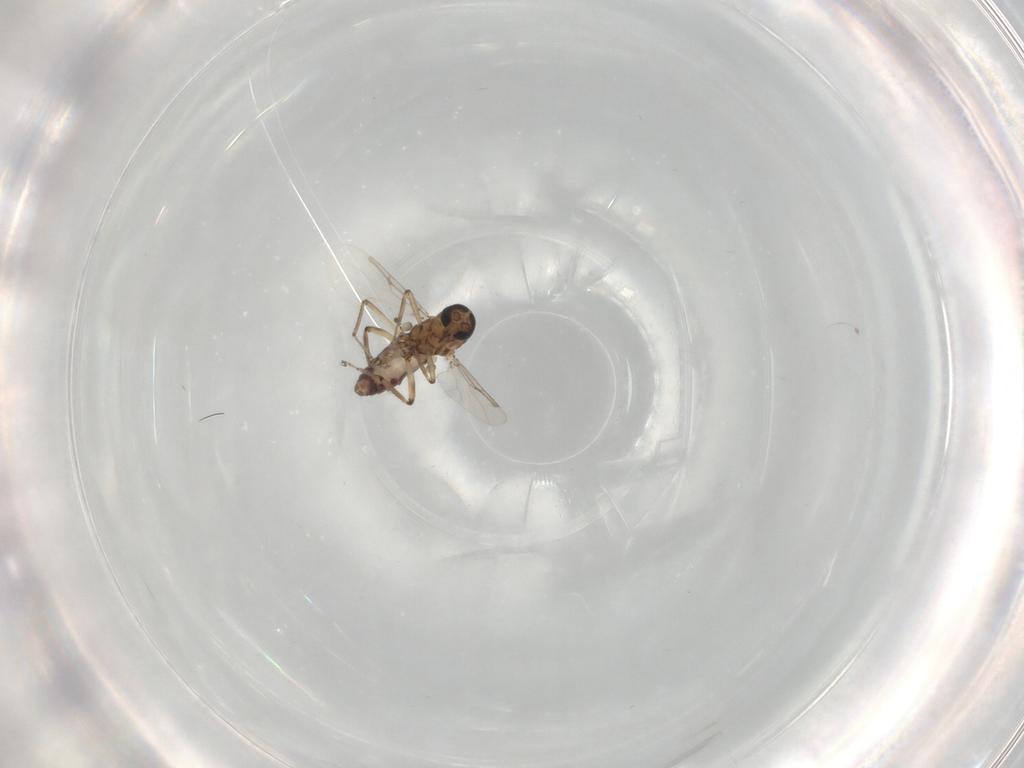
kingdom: Animalia
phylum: Arthropoda
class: Insecta
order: Diptera
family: Ceratopogonidae
